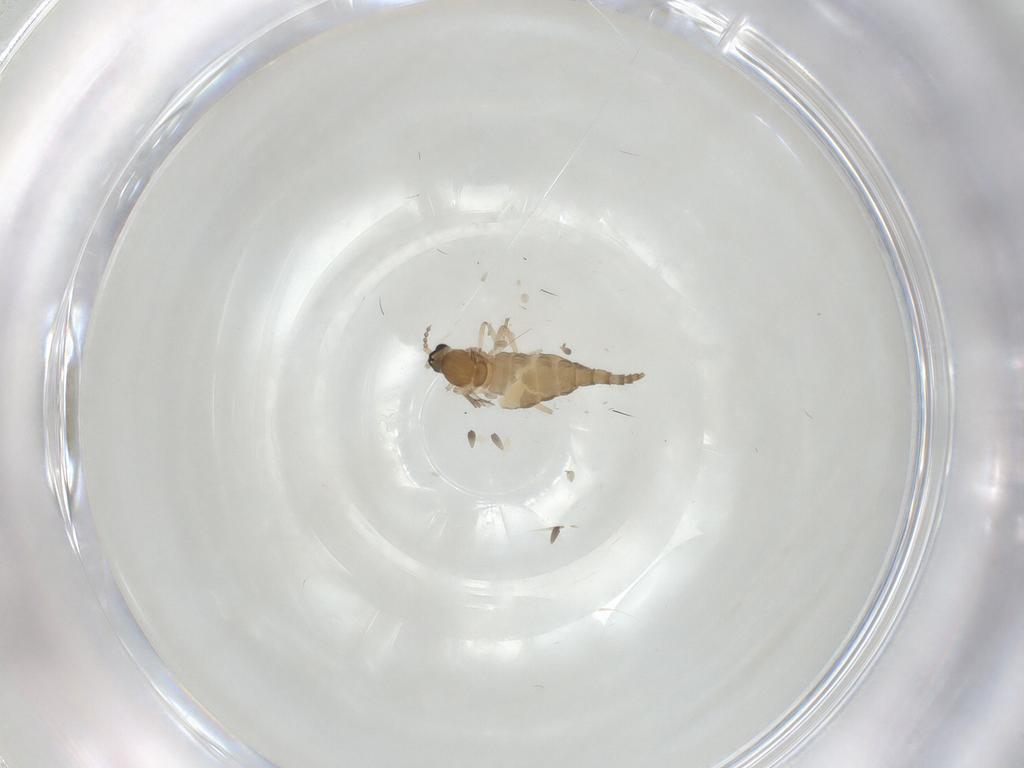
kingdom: Animalia
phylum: Arthropoda
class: Insecta
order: Diptera
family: Cecidomyiidae
